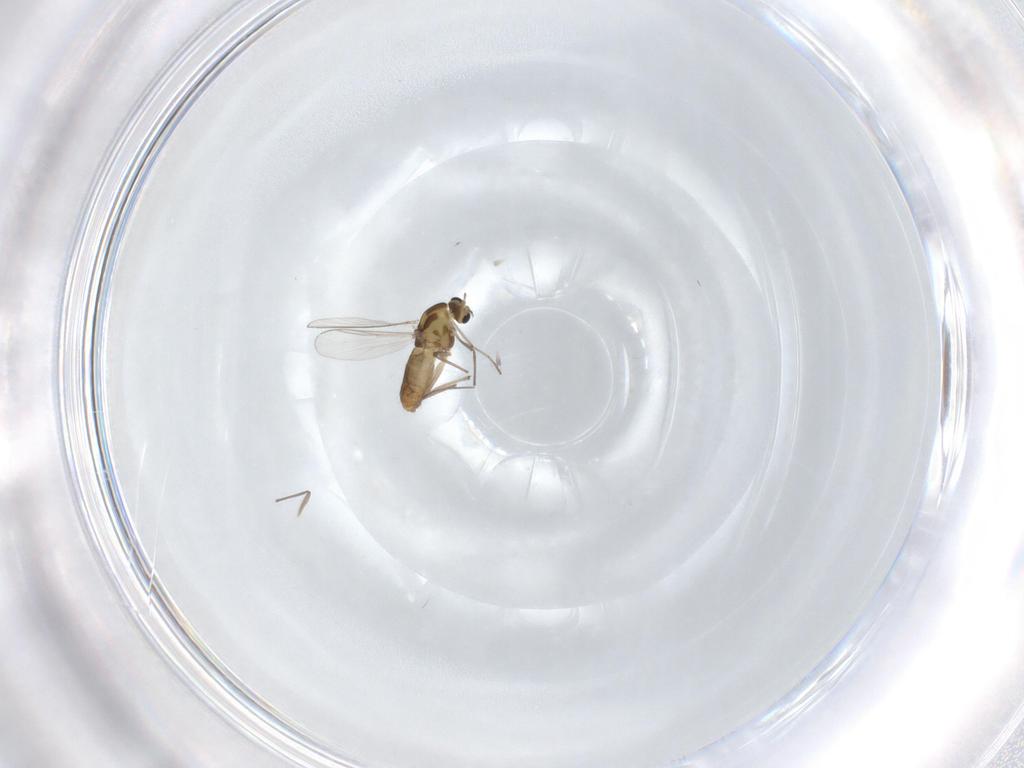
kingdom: Animalia
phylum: Arthropoda
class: Insecta
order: Diptera
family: Chironomidae
